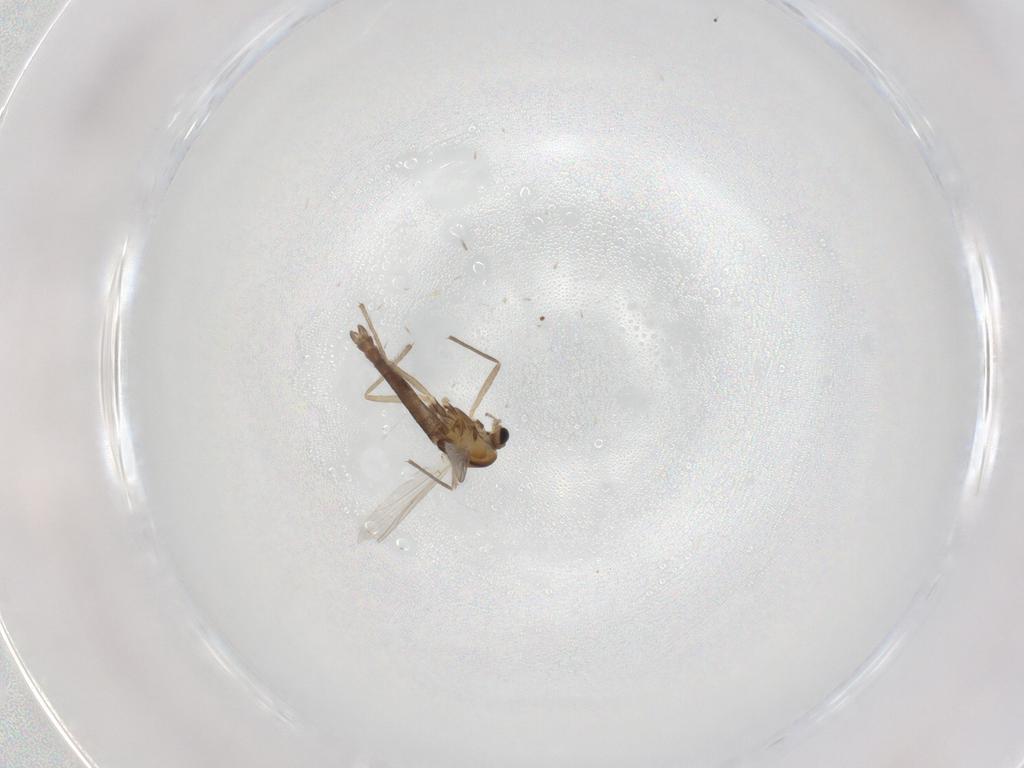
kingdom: Animalia
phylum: Arthropoda
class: Insecta
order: Diptera
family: Chironomidae
